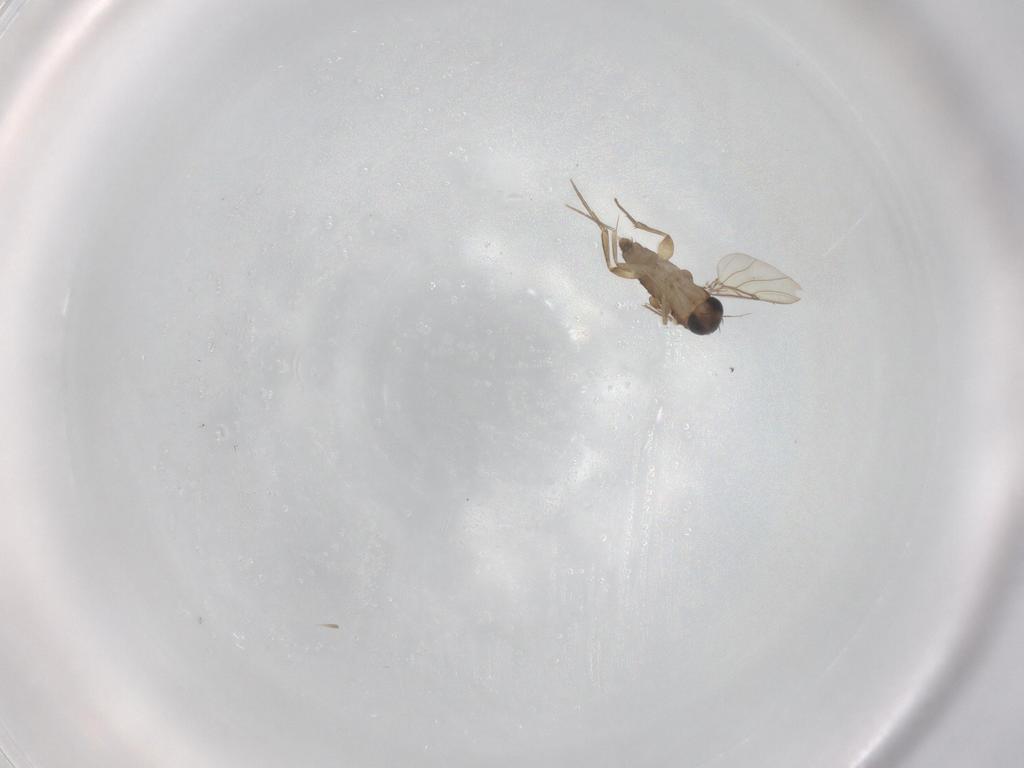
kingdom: Animalia
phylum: Arthropoda
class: Insecta
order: Diptera
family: Phoridae
